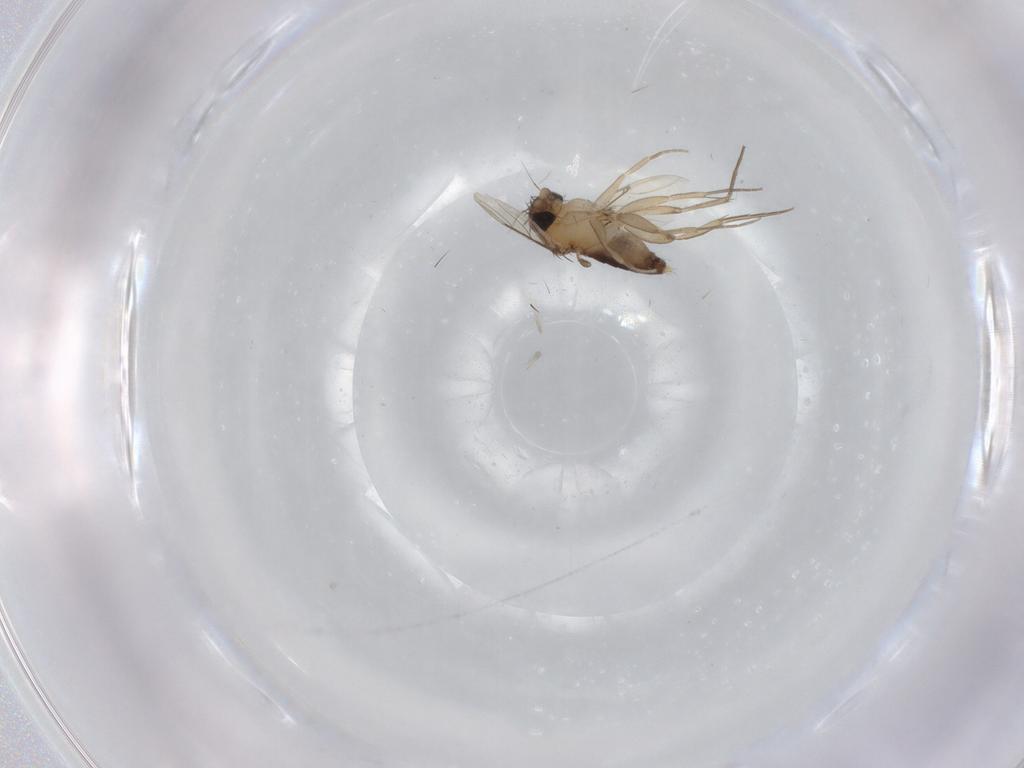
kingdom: Animalia
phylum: Arthropoda
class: Insecta
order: Diptera
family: Phoridae
